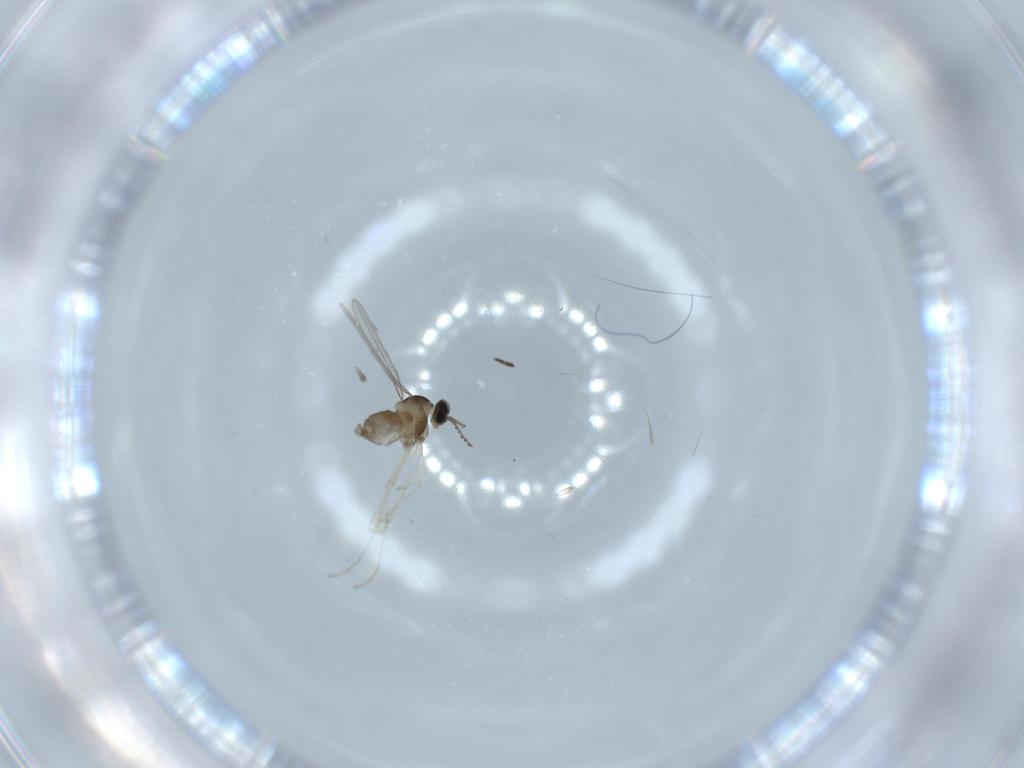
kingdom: Animalia
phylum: Arthropoda
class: Insecta
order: Diptera
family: Cecidomyiidae
